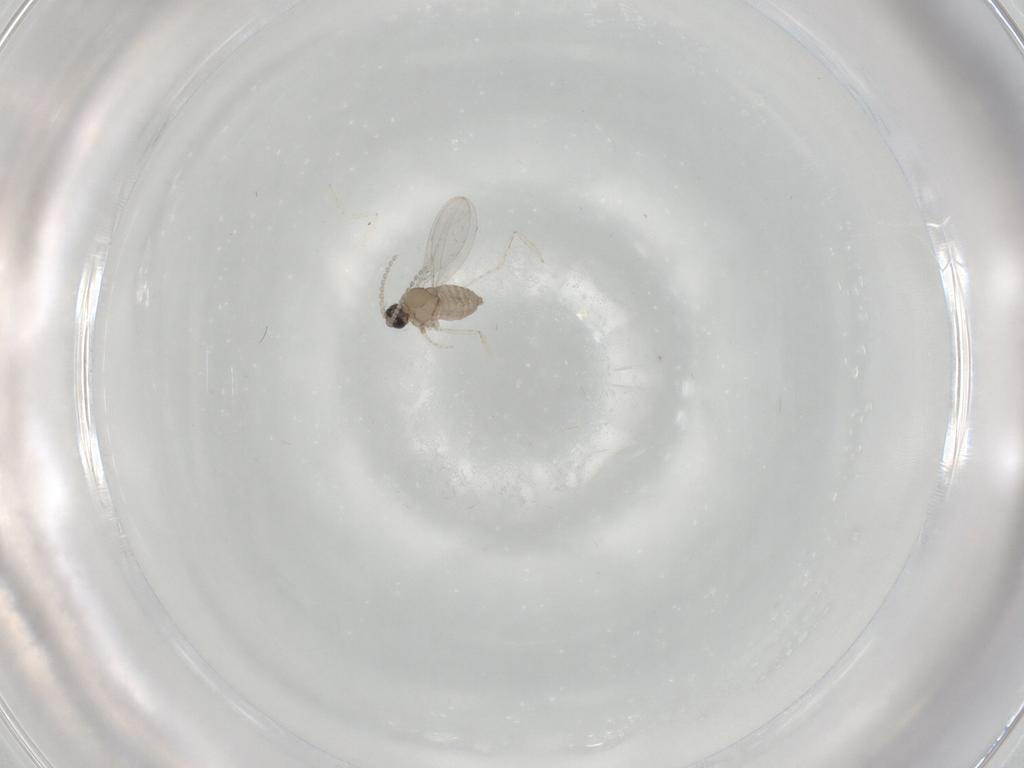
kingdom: Animalia
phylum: Arthropoda
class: Insecta
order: Diptera
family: Cecidomyiidae
